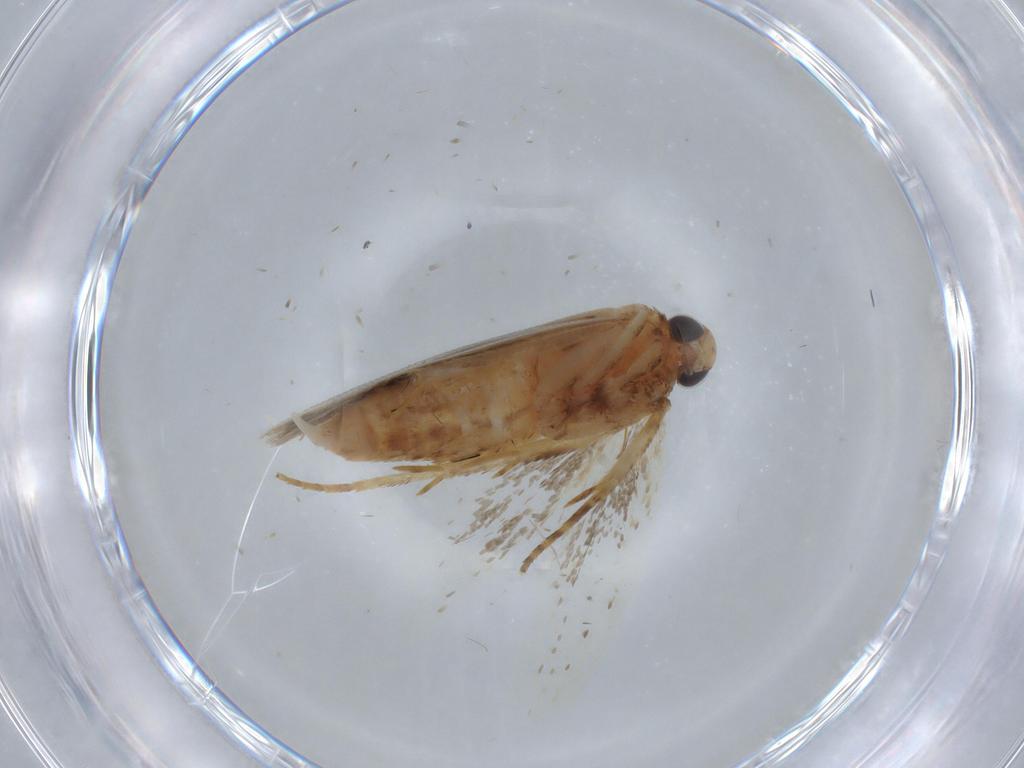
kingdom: Animalia
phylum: Arthropoda
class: Insecta
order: Lepidoptera
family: Gelechiidae
